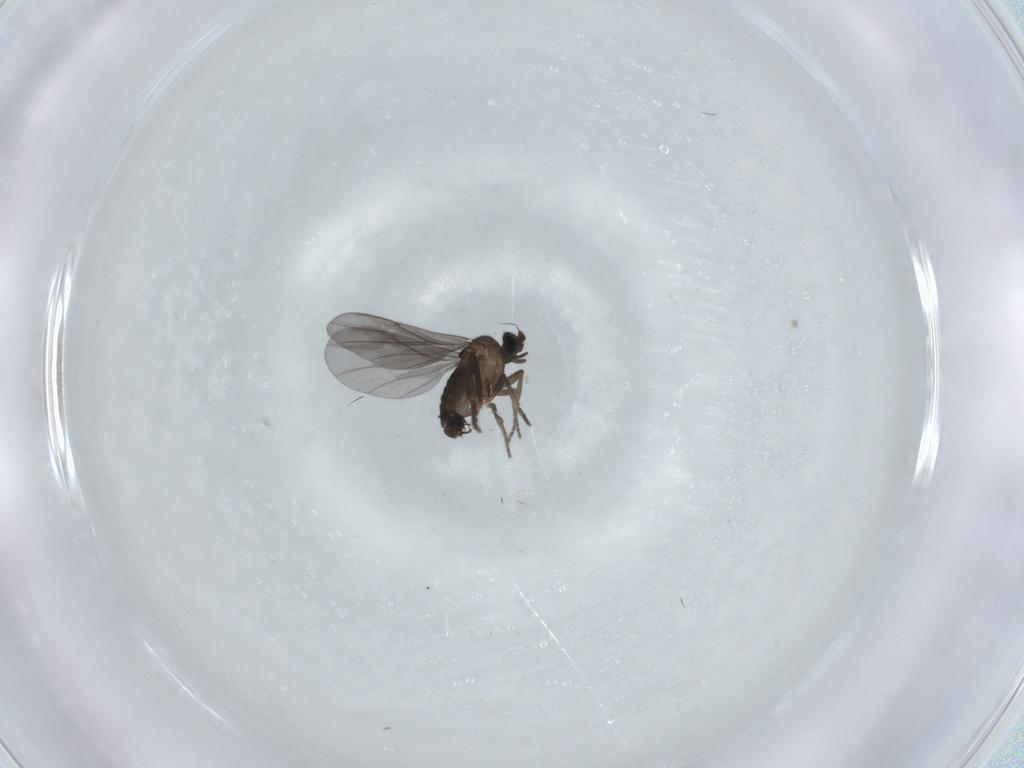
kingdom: Animalia
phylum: Arthropoda
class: Insecta
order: Diptera
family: Phoridae
